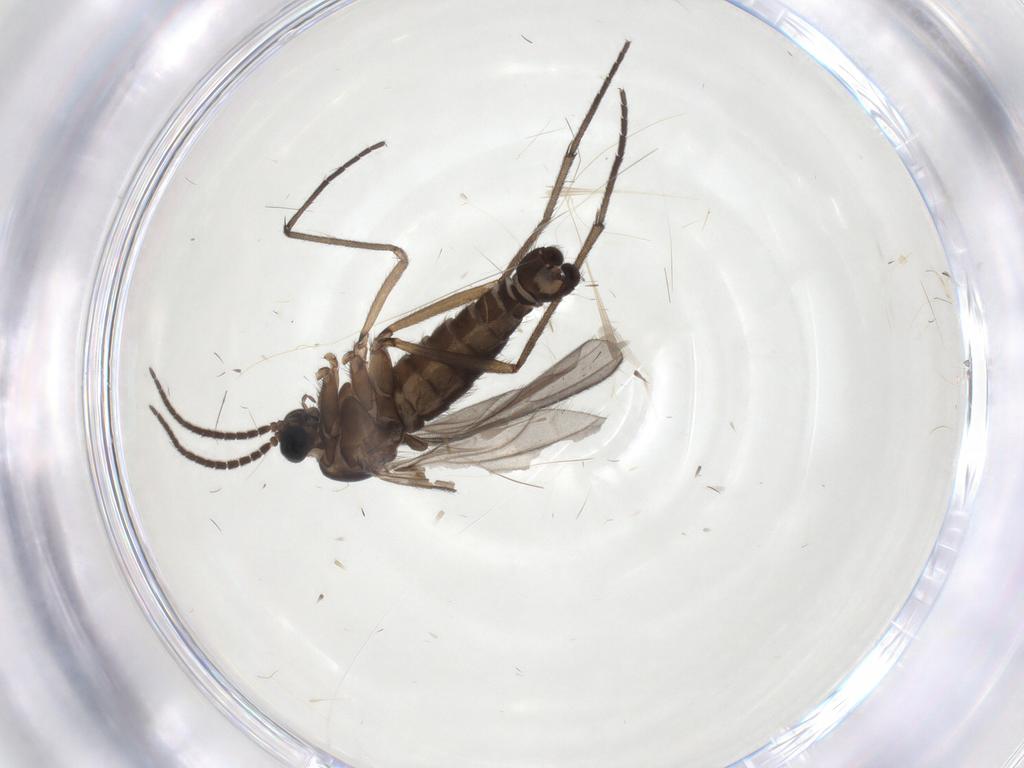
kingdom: Animalia
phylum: Arthropoda
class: Insecta
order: Diptera
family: Sciaridae
